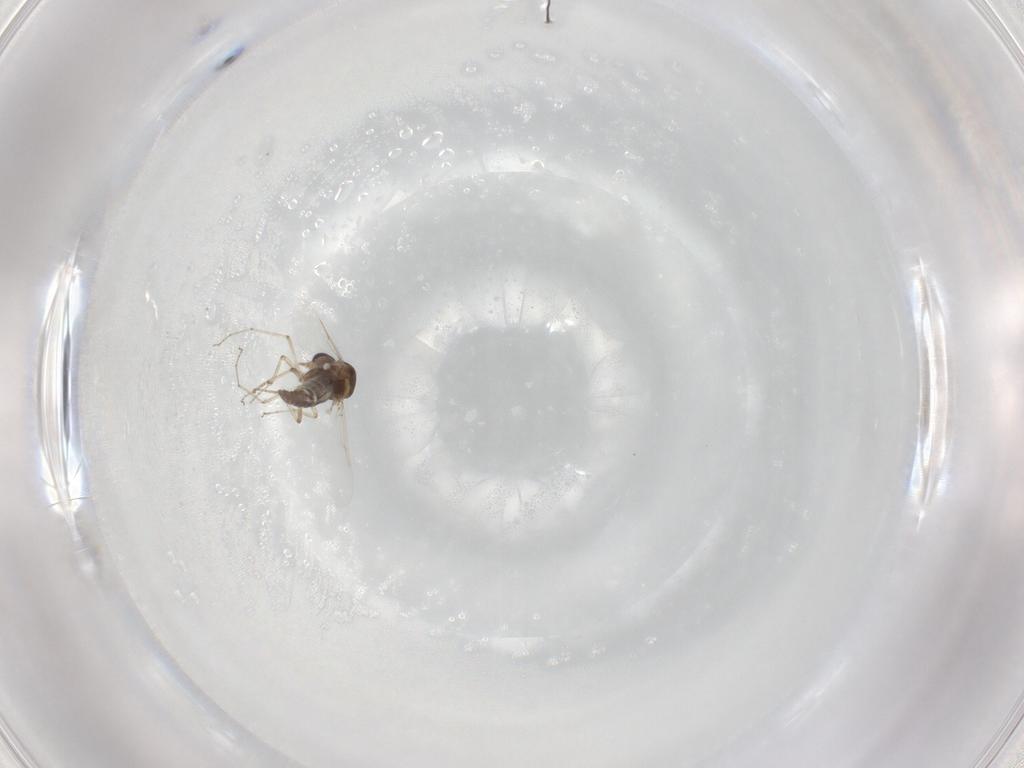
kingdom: Animalia
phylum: Arthropoda
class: Insecta
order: Diptera
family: Ceratopogonidae
